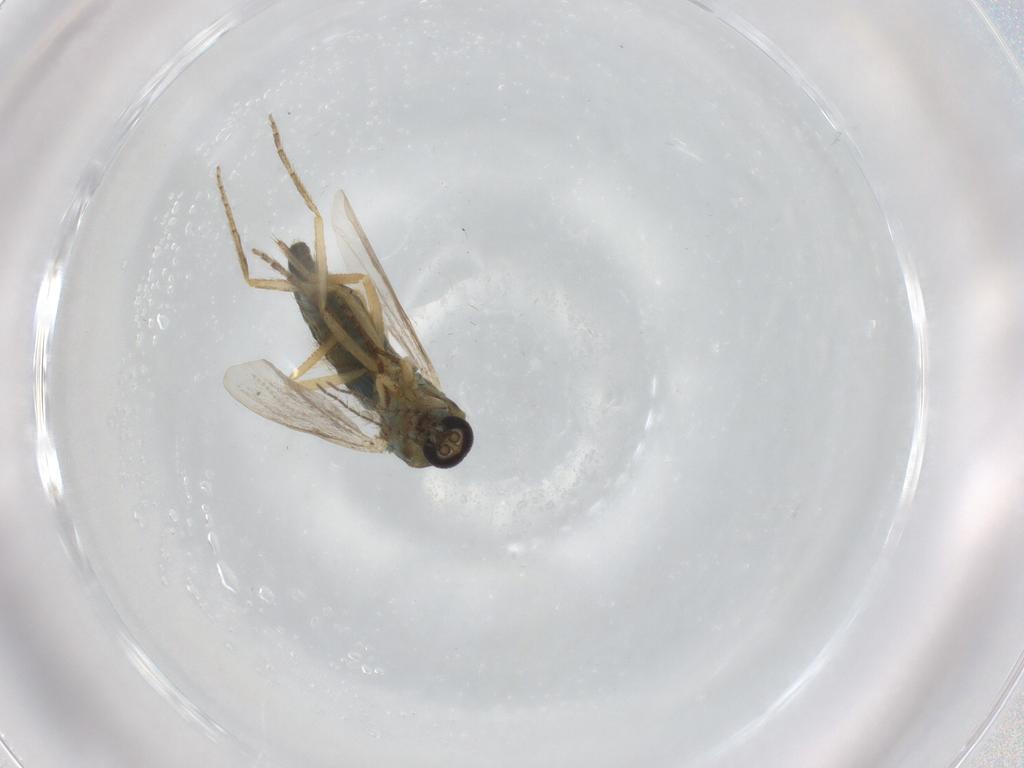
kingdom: Animalia
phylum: Arthropoda
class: Insecta
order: Diptera
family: Ceratopogonidae
